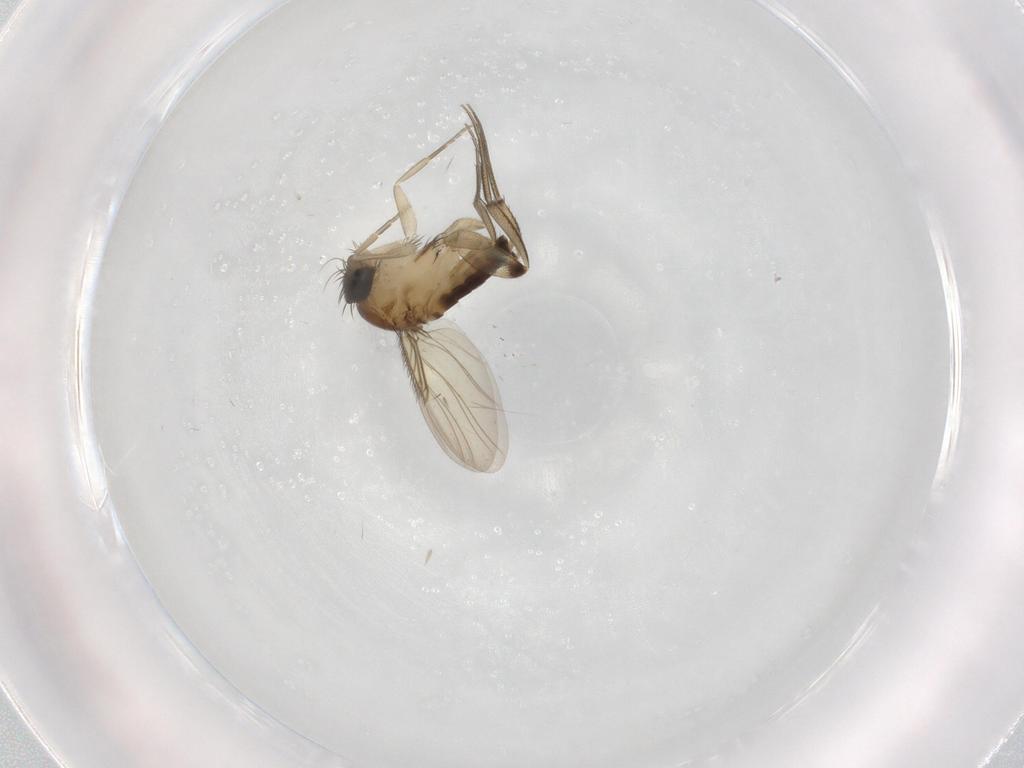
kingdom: Animalia
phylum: Arthropoda
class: Insecta
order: Diptera
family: Phoridae
